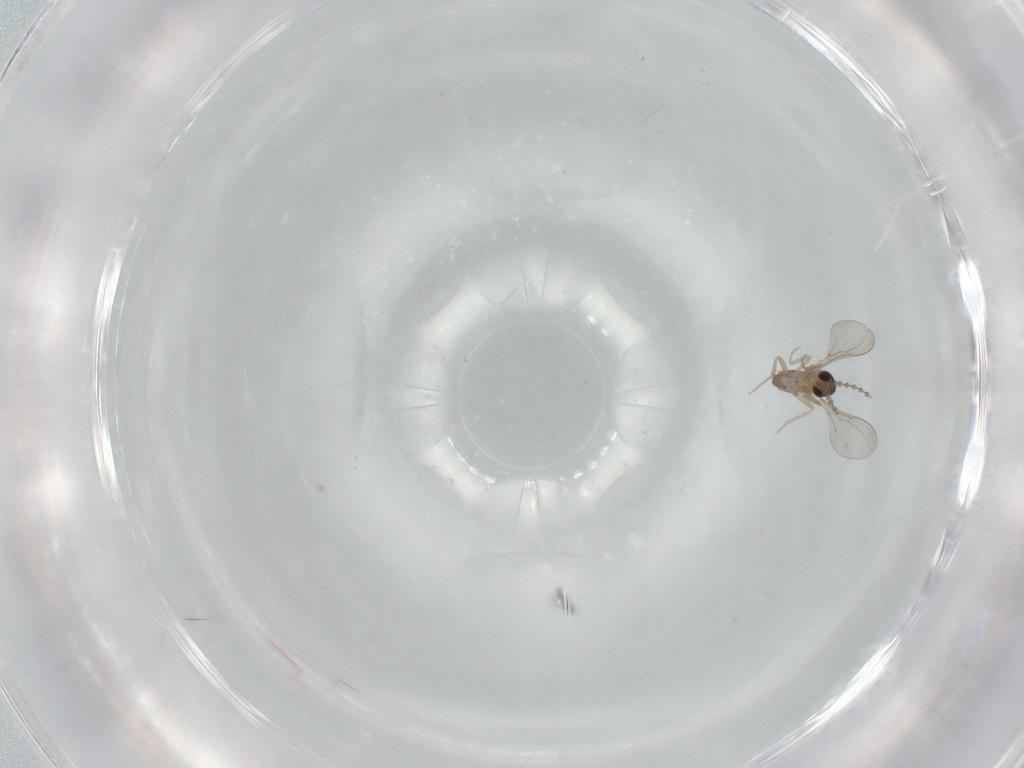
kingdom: Animalia
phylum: Arthropoda
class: Insecta
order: Diptera
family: Cecidomyiidae
